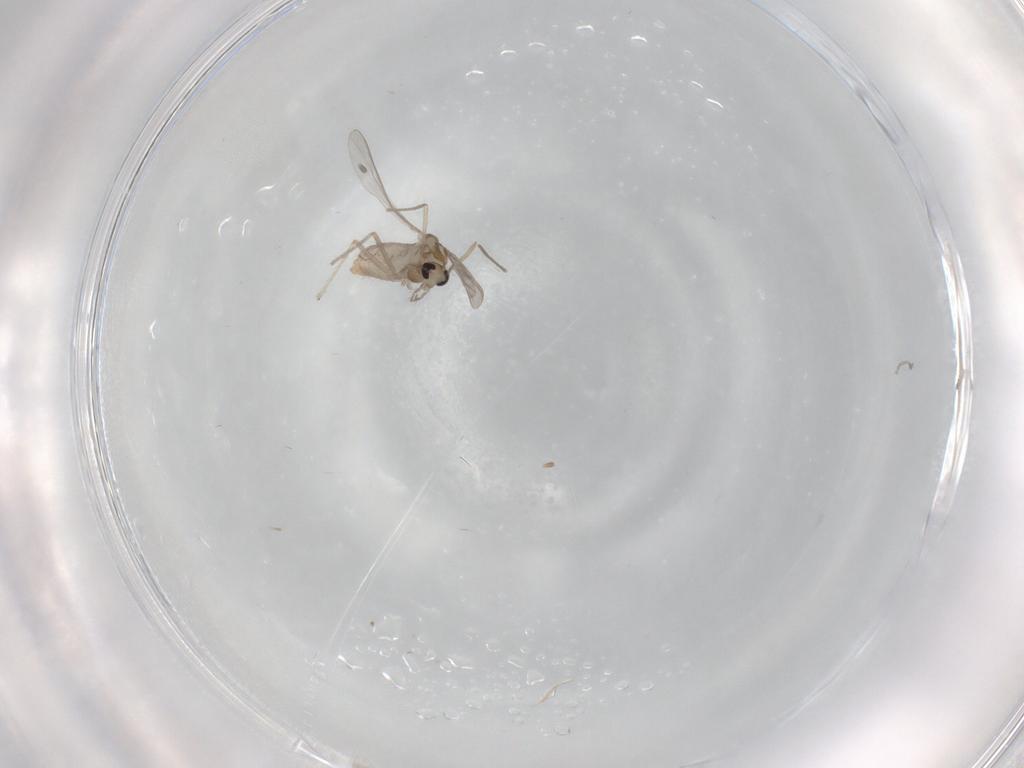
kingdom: Animalia
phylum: Arthropoda
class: Insecta
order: Diptera
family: Chironomidae
